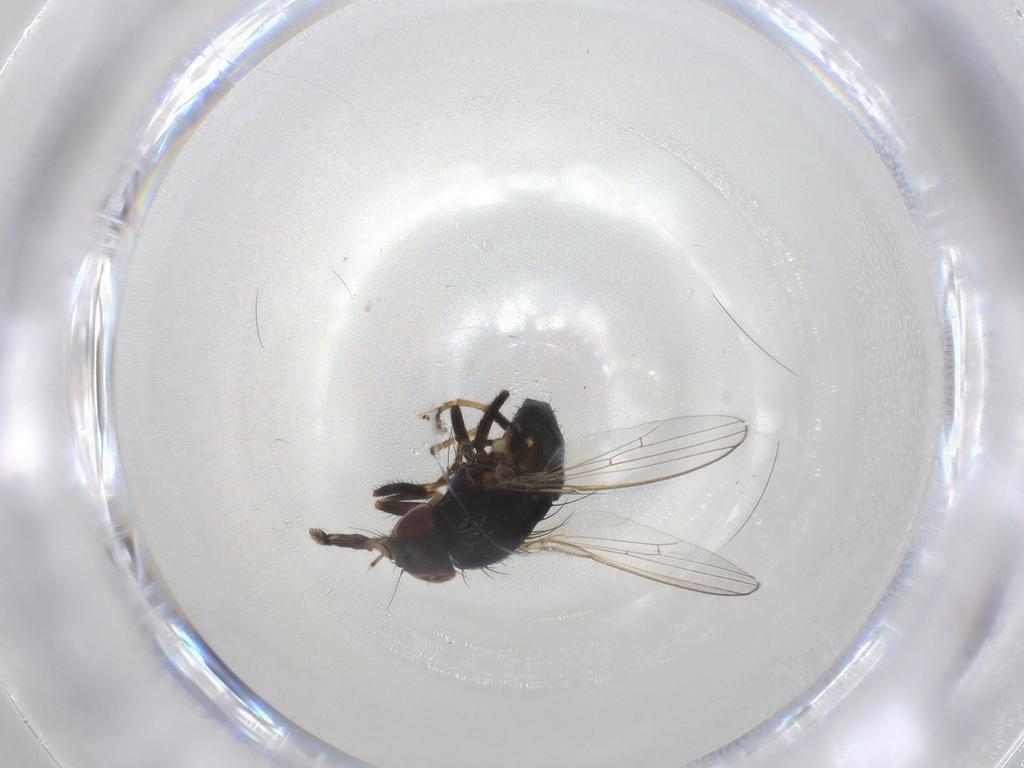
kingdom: Animalia
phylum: Arthropoda
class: Insecta
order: Diptera
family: Milichiidae
